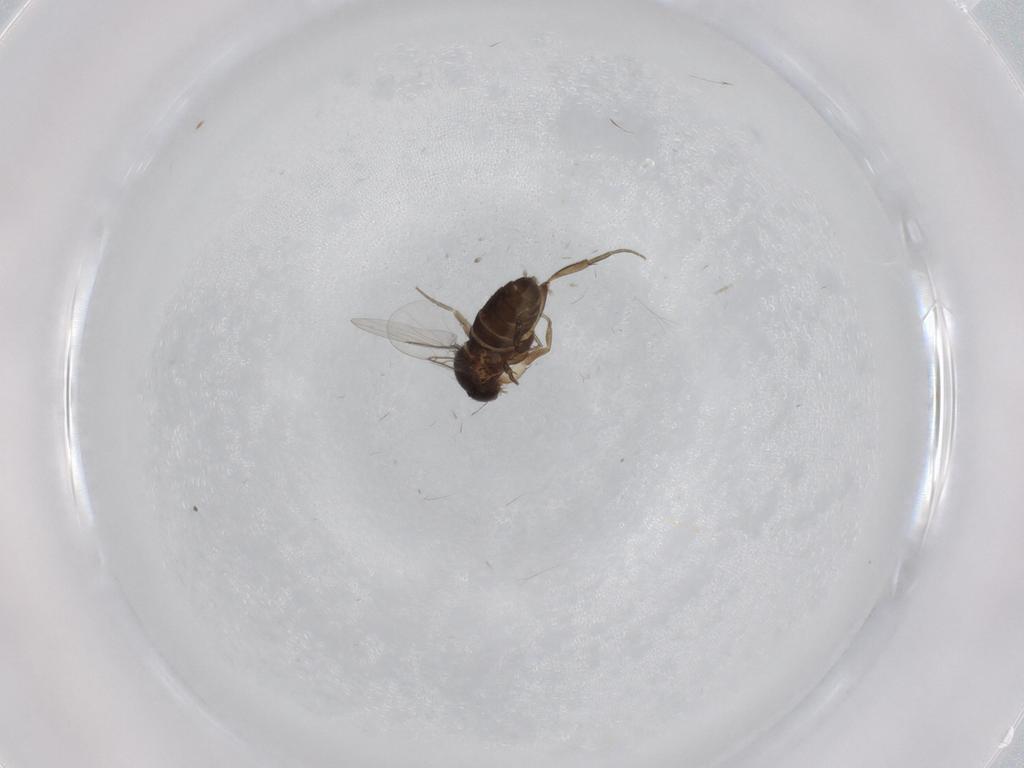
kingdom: Animalia
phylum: Arthropoda
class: Insecta
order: Diptera
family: Phoridae
